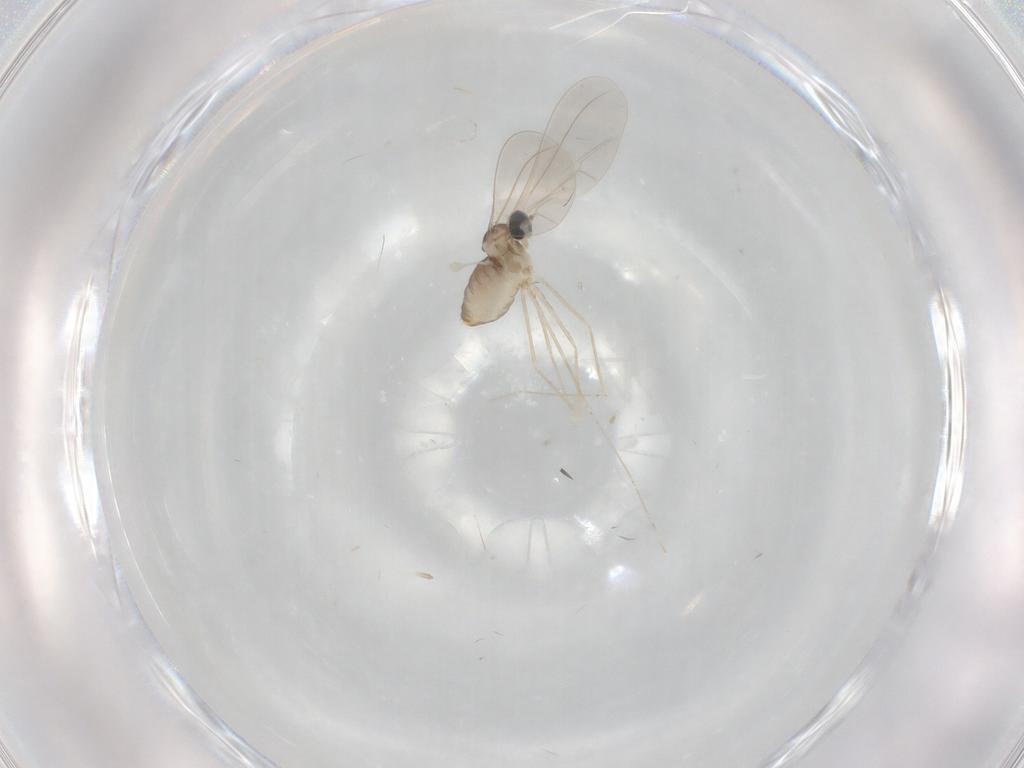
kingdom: Animalia
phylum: Arthropoda
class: Insecta
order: Diptera
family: Cecidomyiidae
